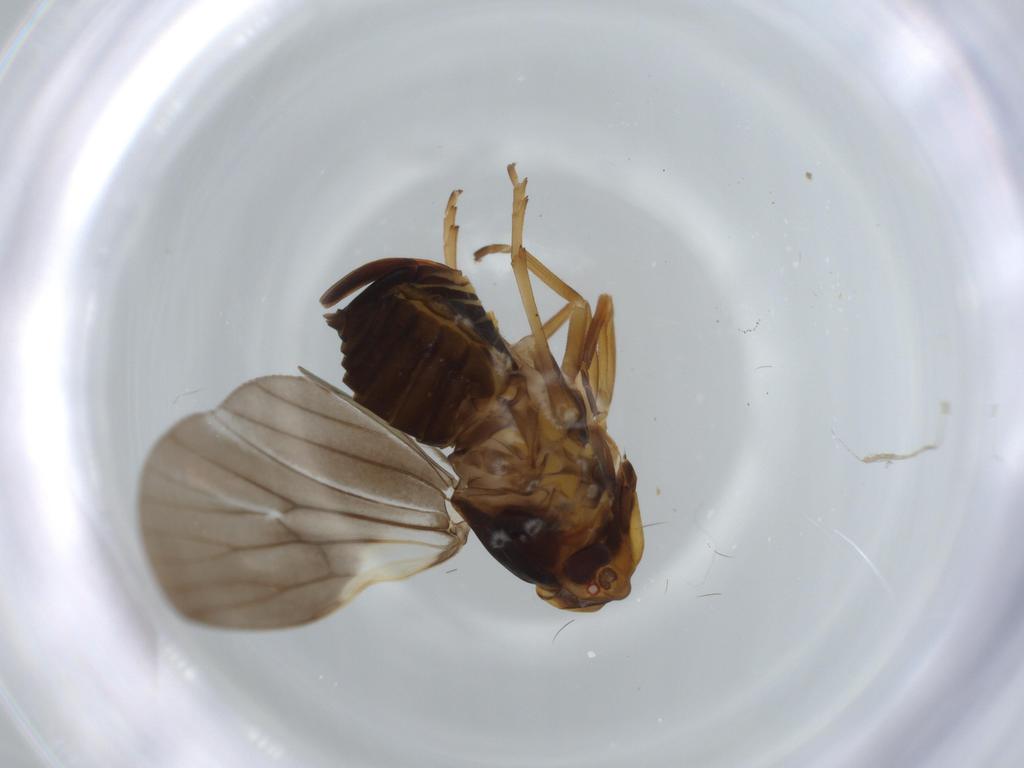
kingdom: Animalia
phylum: Arthropoda
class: Insecta
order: Hemiptera
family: Cixiidae
